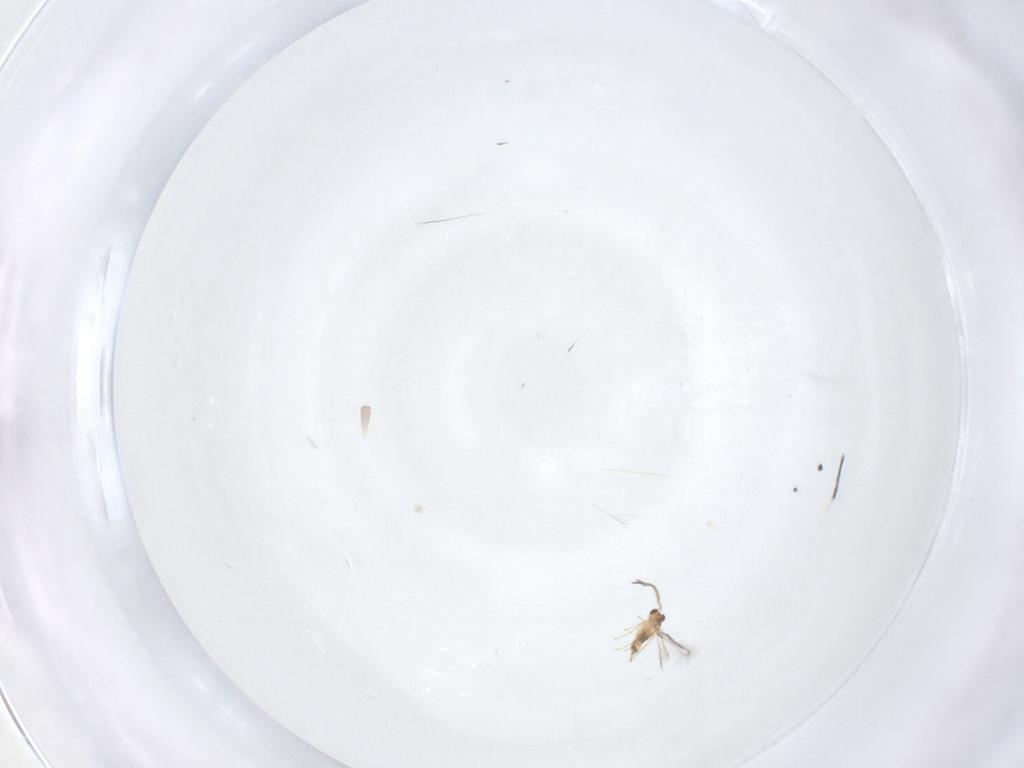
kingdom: Animalia
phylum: Arthropoda
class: Insecta
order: Hymenoptera
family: Mymaridae
